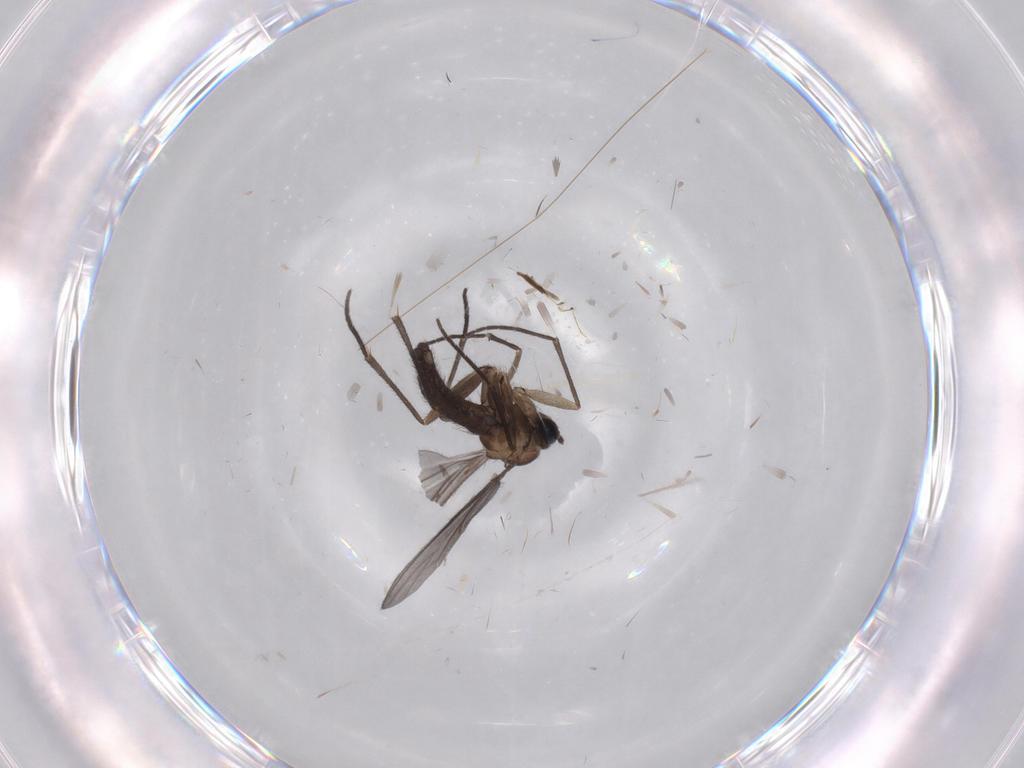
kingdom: Animalia
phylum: Arthropoda
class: Insecta
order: Diptera
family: Sciaridae
